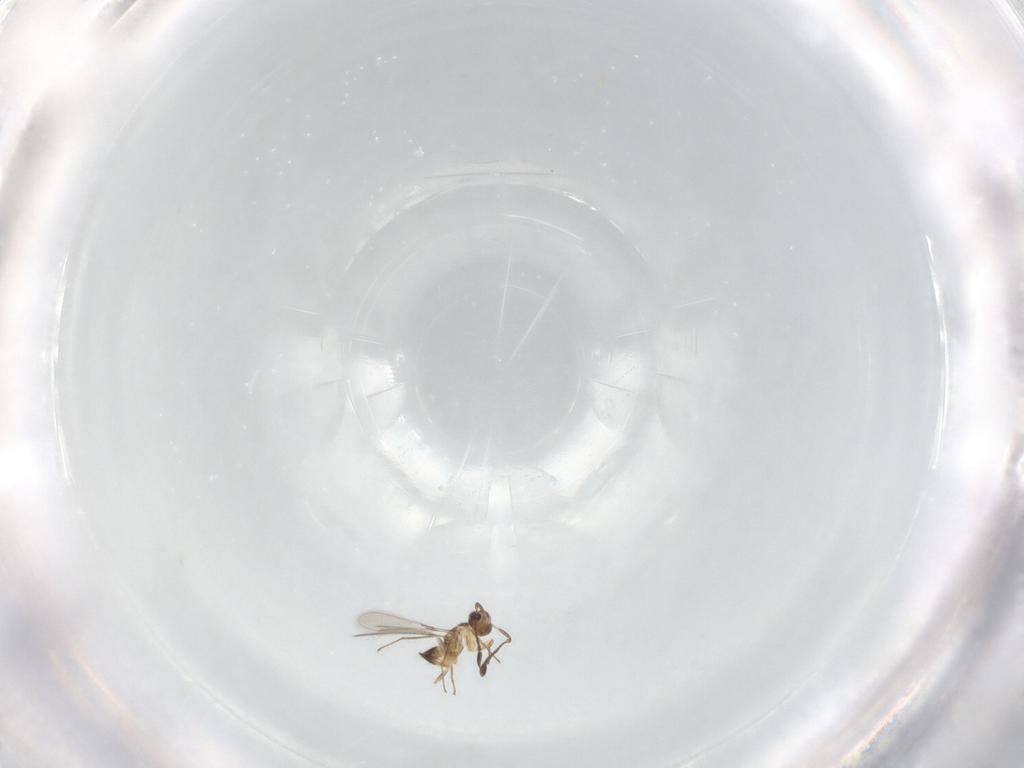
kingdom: Animalia
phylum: Arthropoda
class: Insecta
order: Hymenoptera
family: Mymaridae
